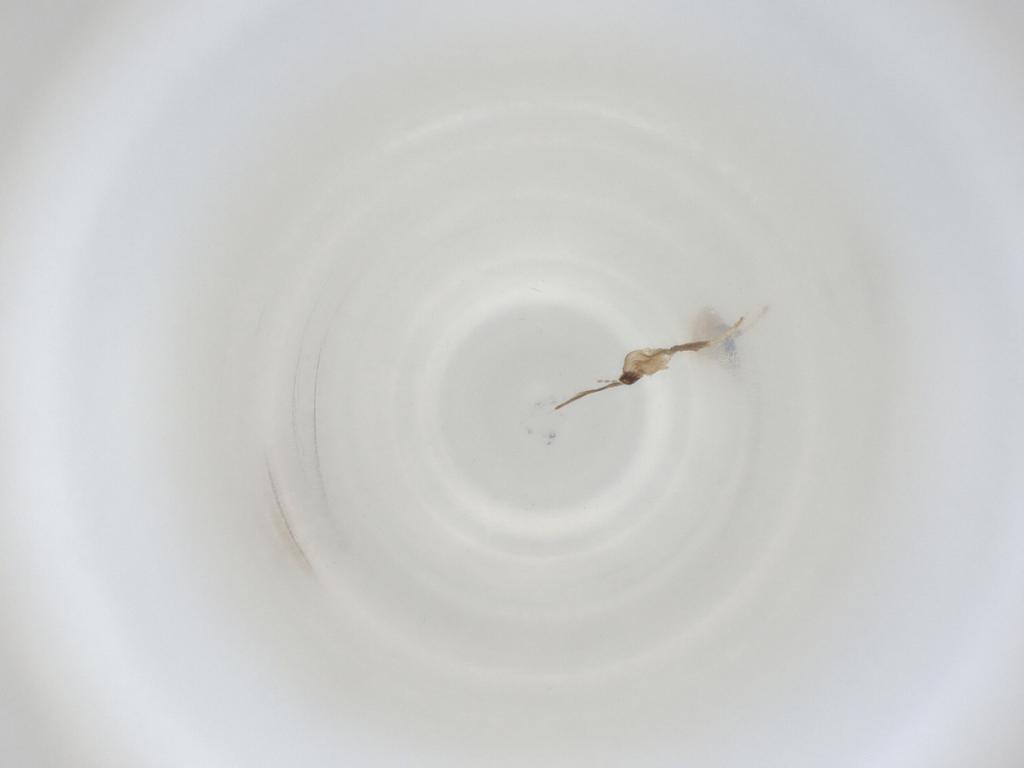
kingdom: Animalia
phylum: Arthropoda
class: Insecta
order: Diptera
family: Cecidomyiidae
